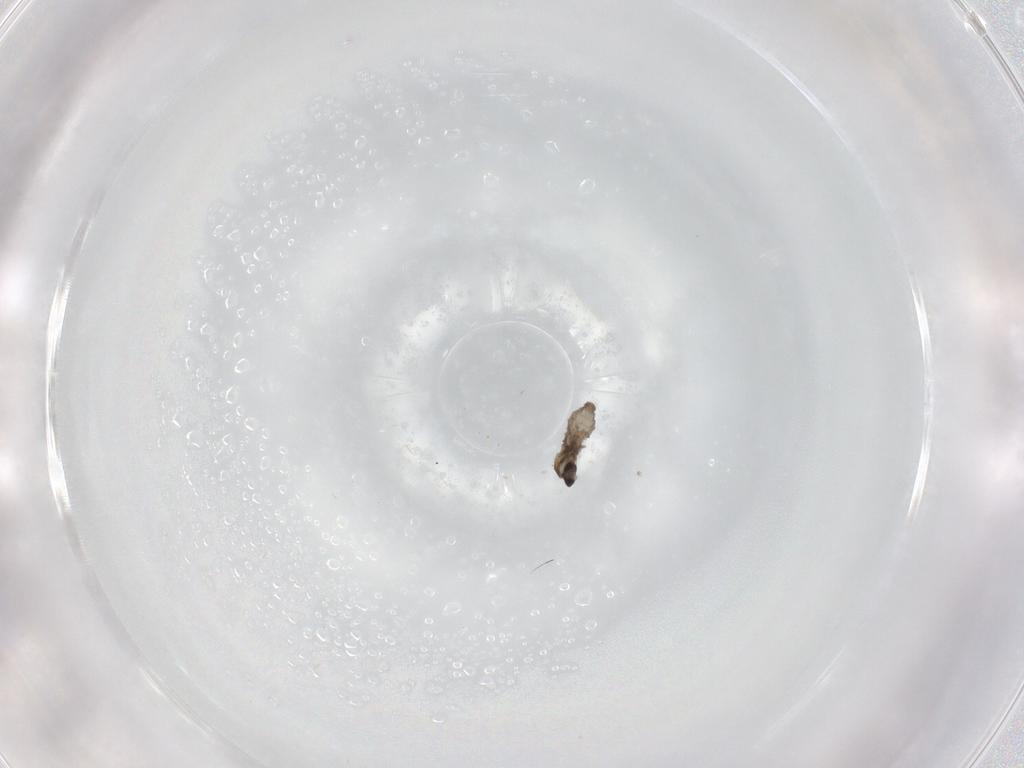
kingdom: Animalia
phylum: Arthropoda
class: Insecta
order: Diptera
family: Cecidomyiidae
